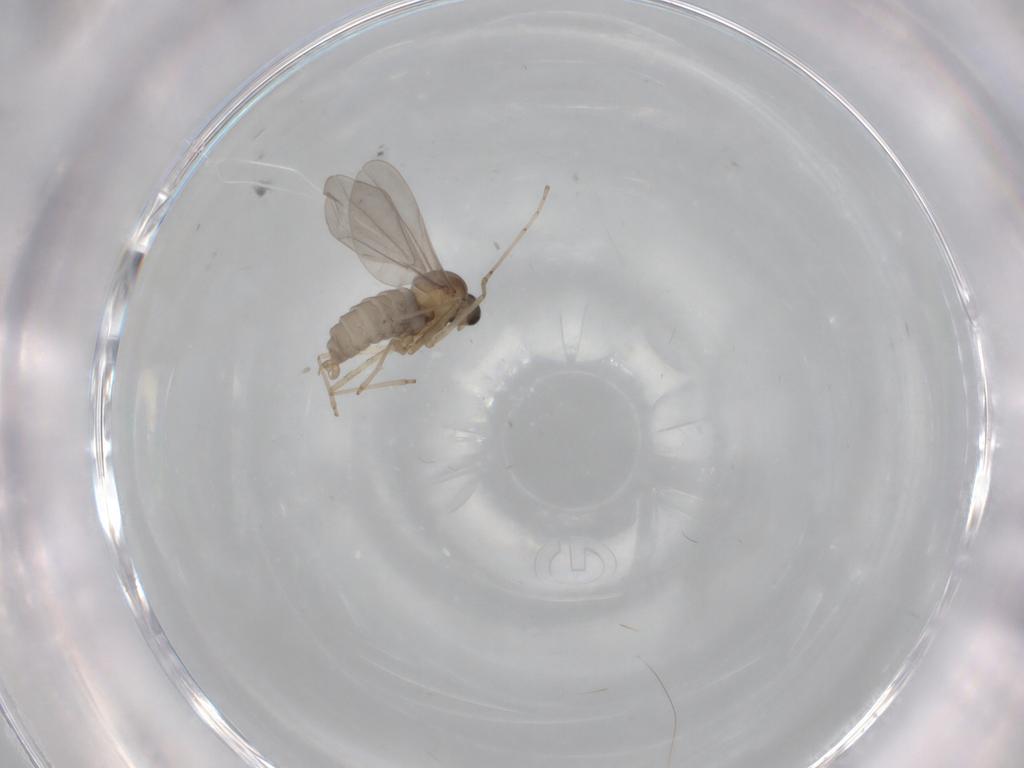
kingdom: Animalia
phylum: Arthropoda
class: Insecta
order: Diptera
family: Cecidomyiidae
